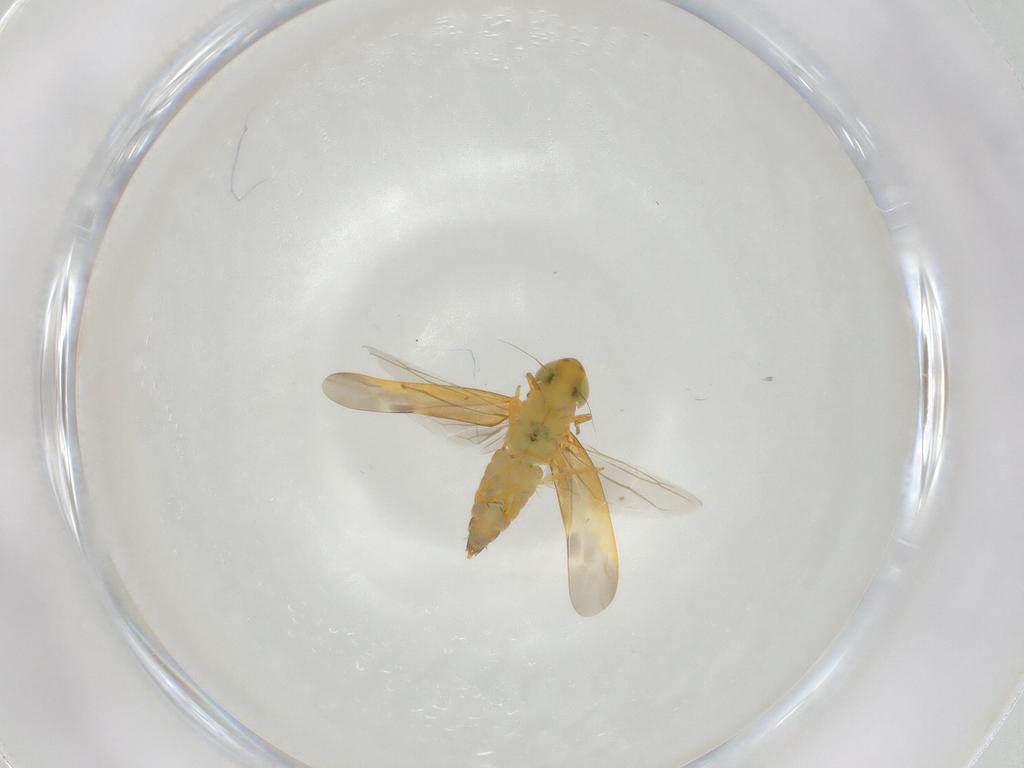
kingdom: Animalia
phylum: Arthropoda
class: Insecta
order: Hemiptera
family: Cicadellidae
